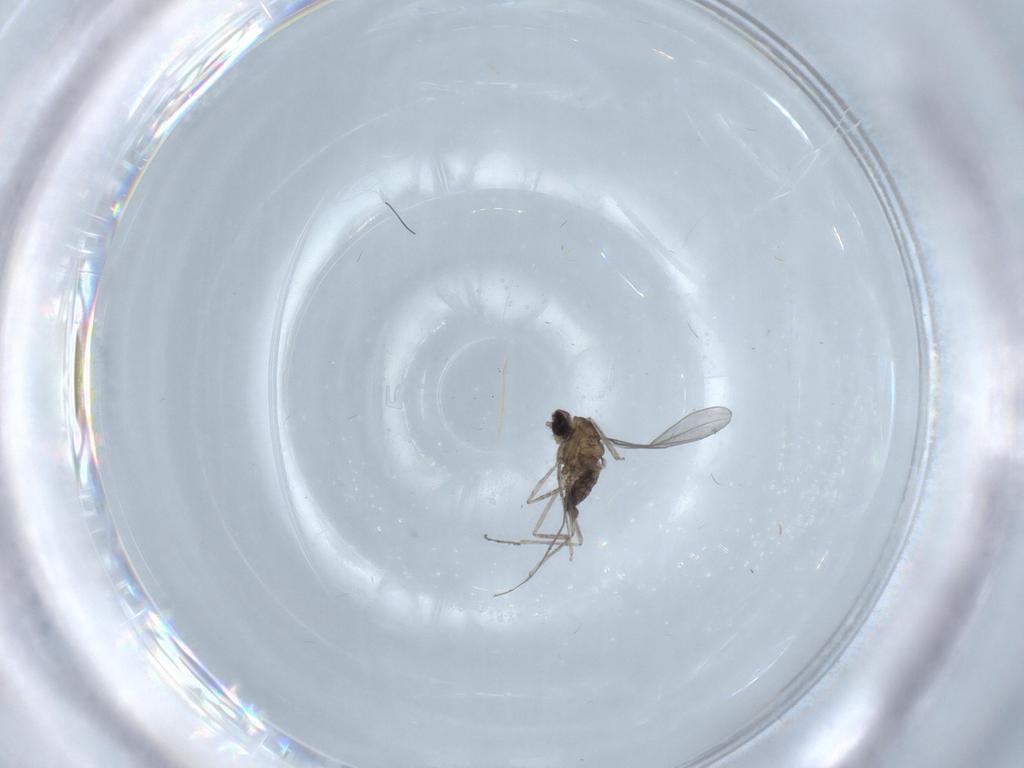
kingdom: Animalia
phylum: Arthropoda
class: Insecta
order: Diptera
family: Cecidomyiidae
